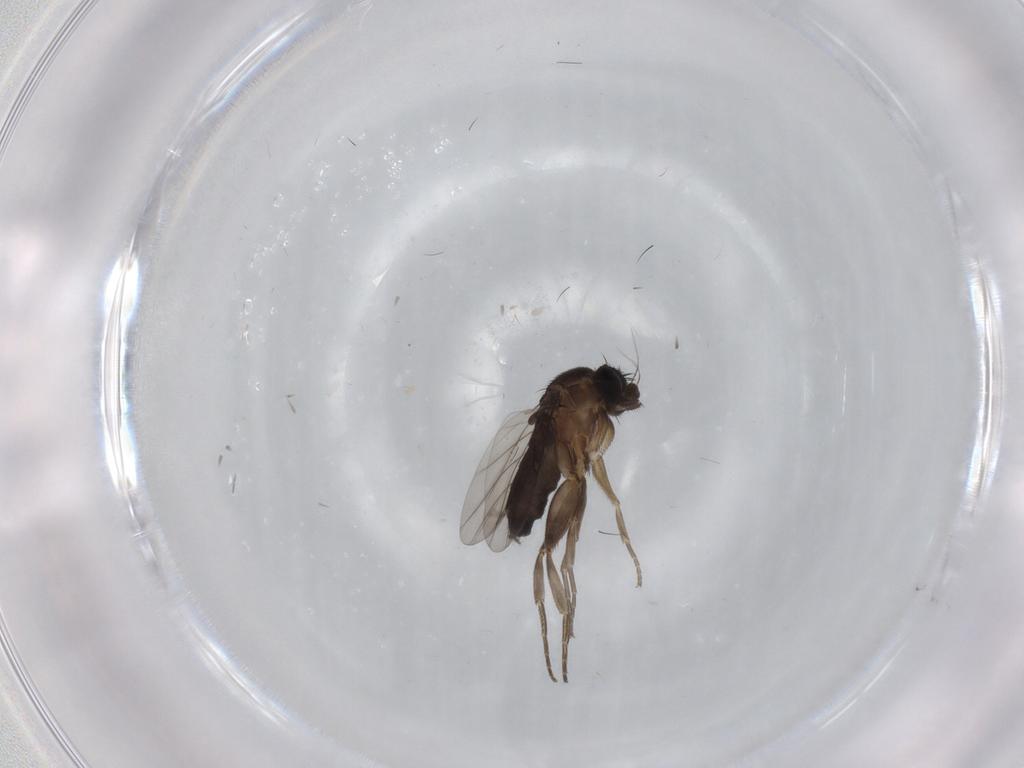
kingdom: Animalia
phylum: Arthropoda
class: Insecta
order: Diptera
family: Phoridae
